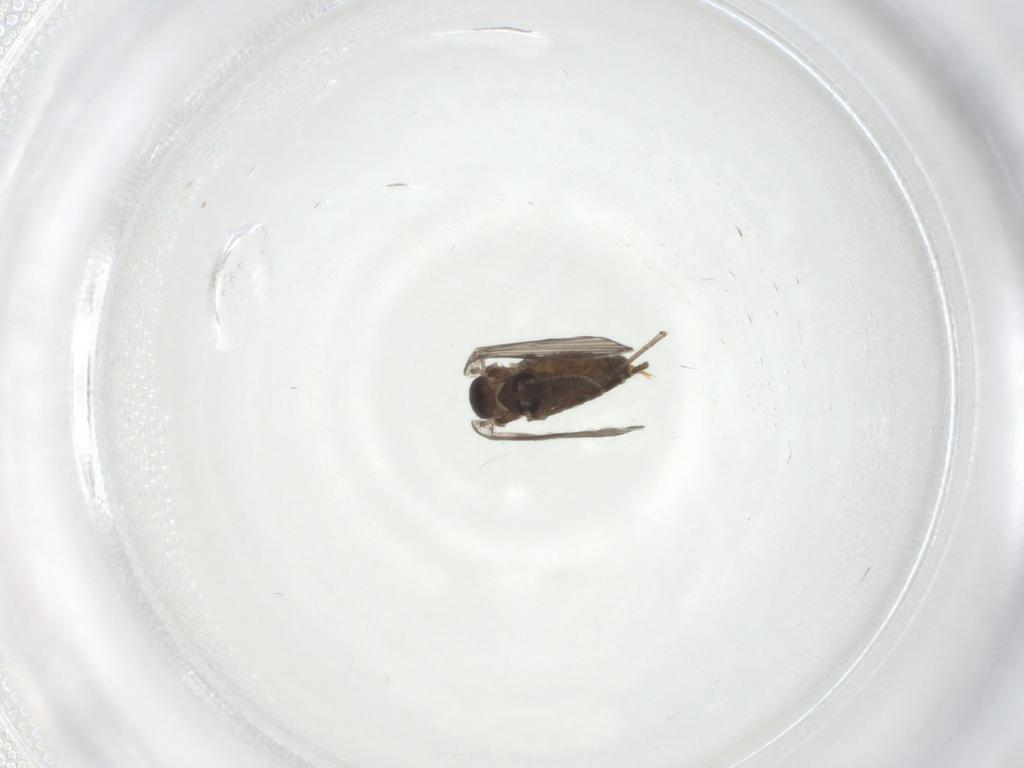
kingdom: Animalia
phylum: Arthropoda
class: Insecta
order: Diptera
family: Psychodidae
